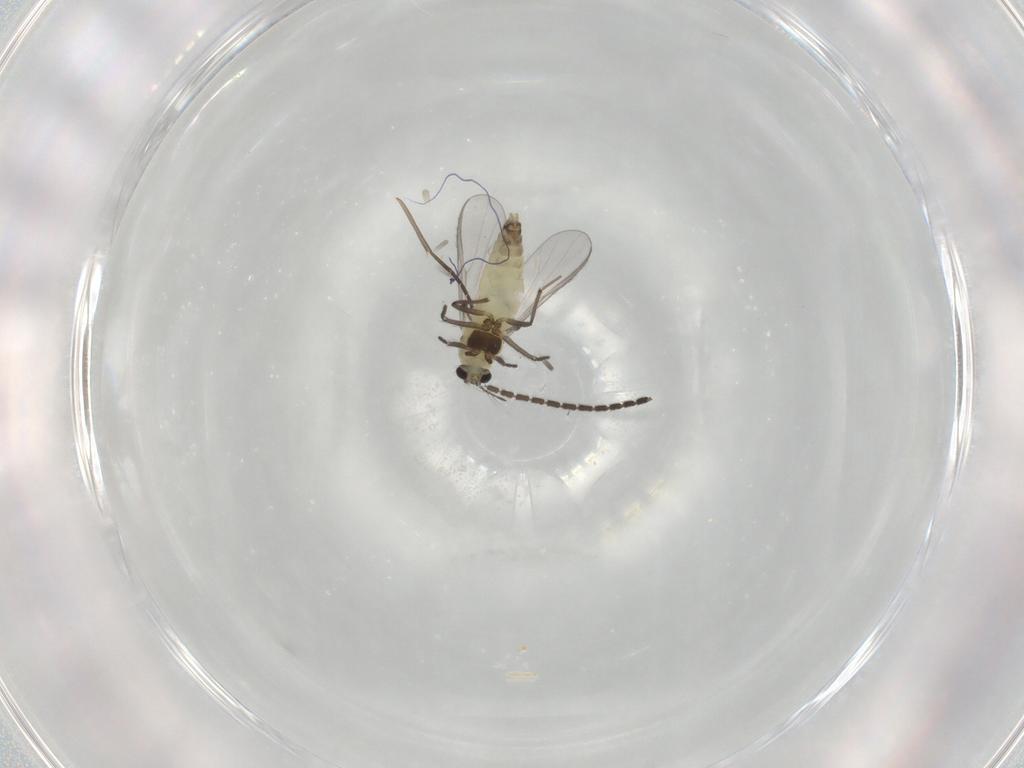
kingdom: Animalia
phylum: Arthropoda
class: Insecta
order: Diptera
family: Chironomidae
